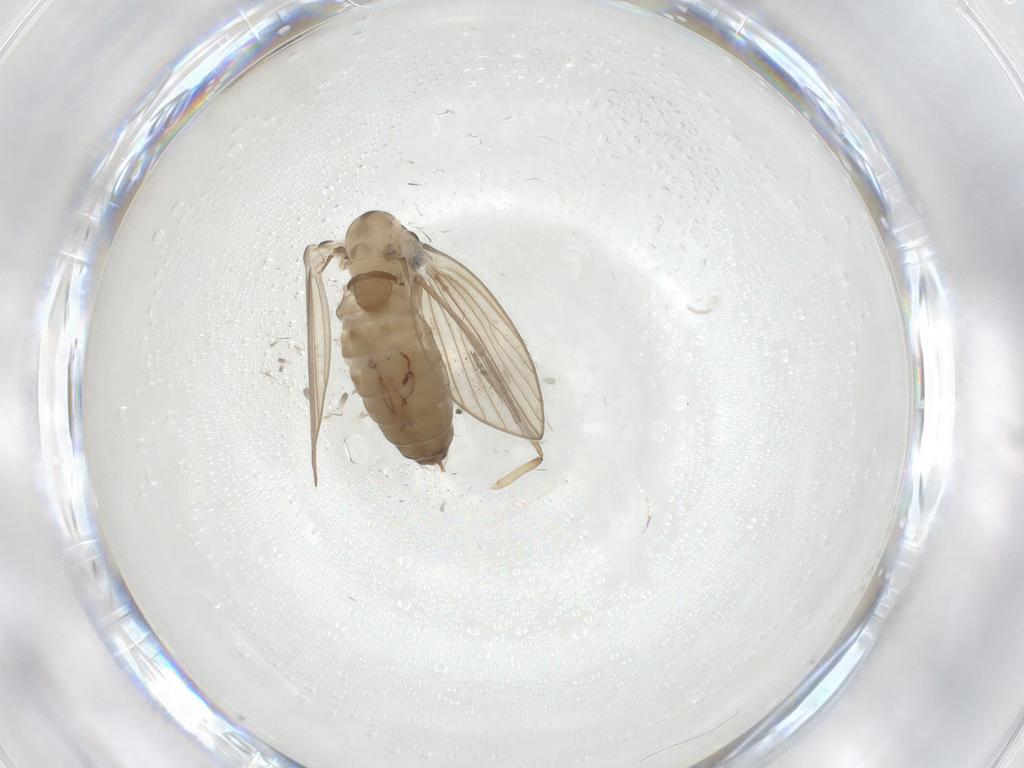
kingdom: Animalia
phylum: Arthropoda
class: Insecta
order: Diptera
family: Psychodidae
